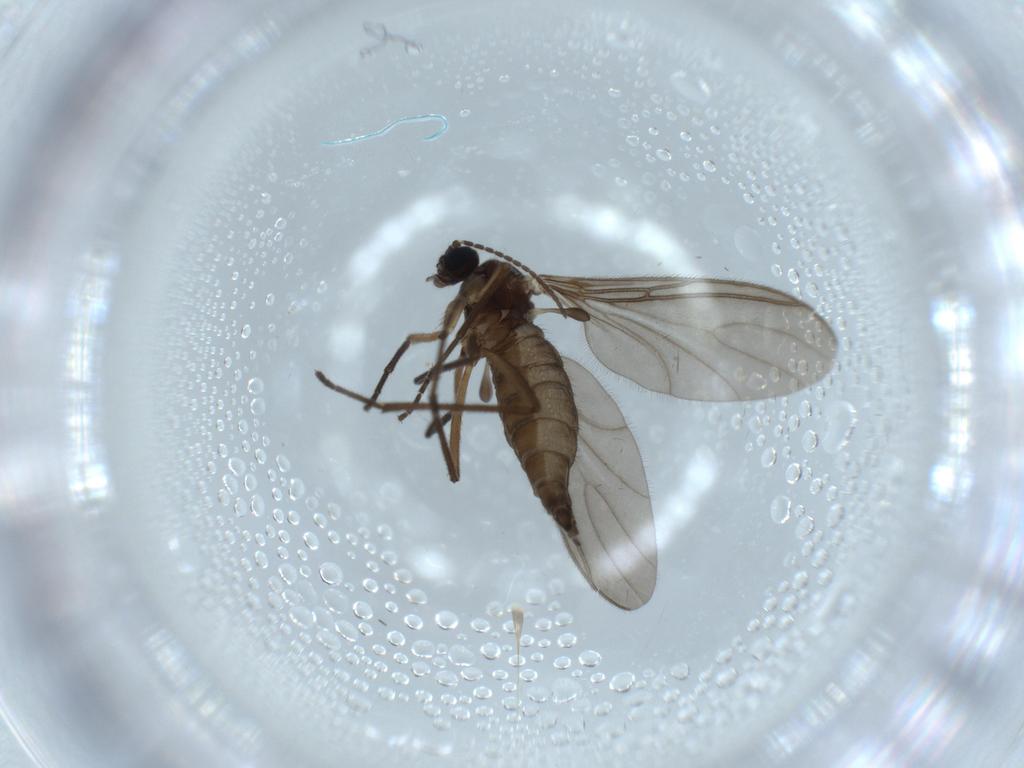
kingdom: Animalia
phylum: Arthropoda
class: Insecta
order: Diptera
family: Sciaridae
